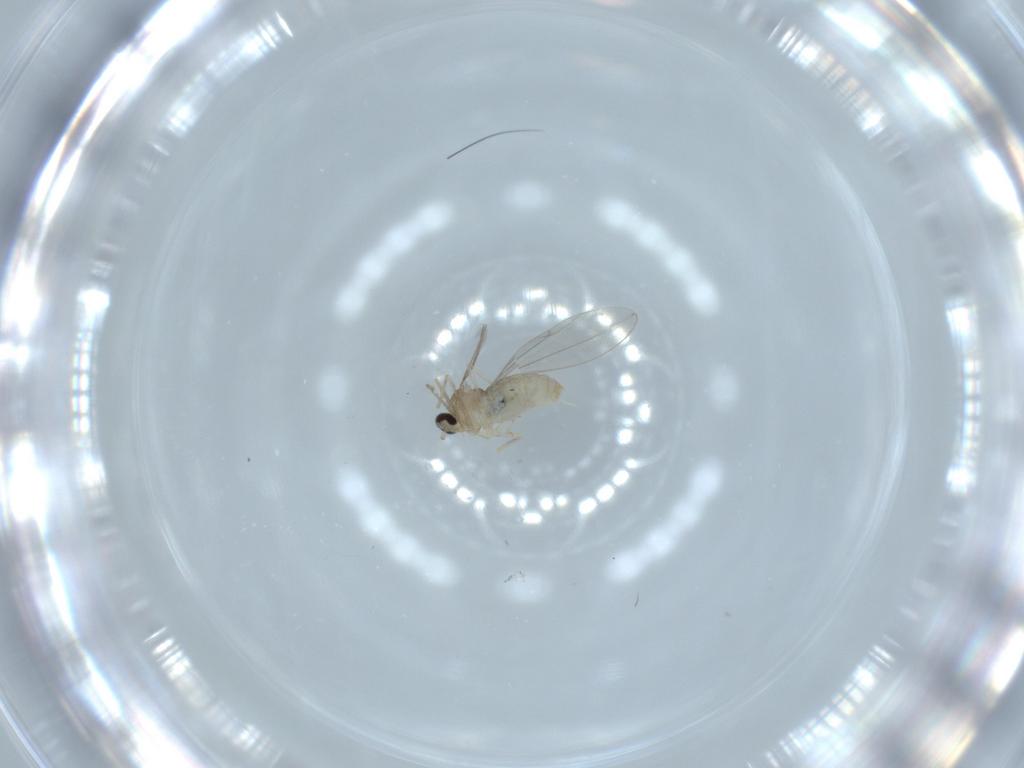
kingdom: Animalia
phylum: Arthropoda
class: Insecta
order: Diptera
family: Cecidomyiidae
